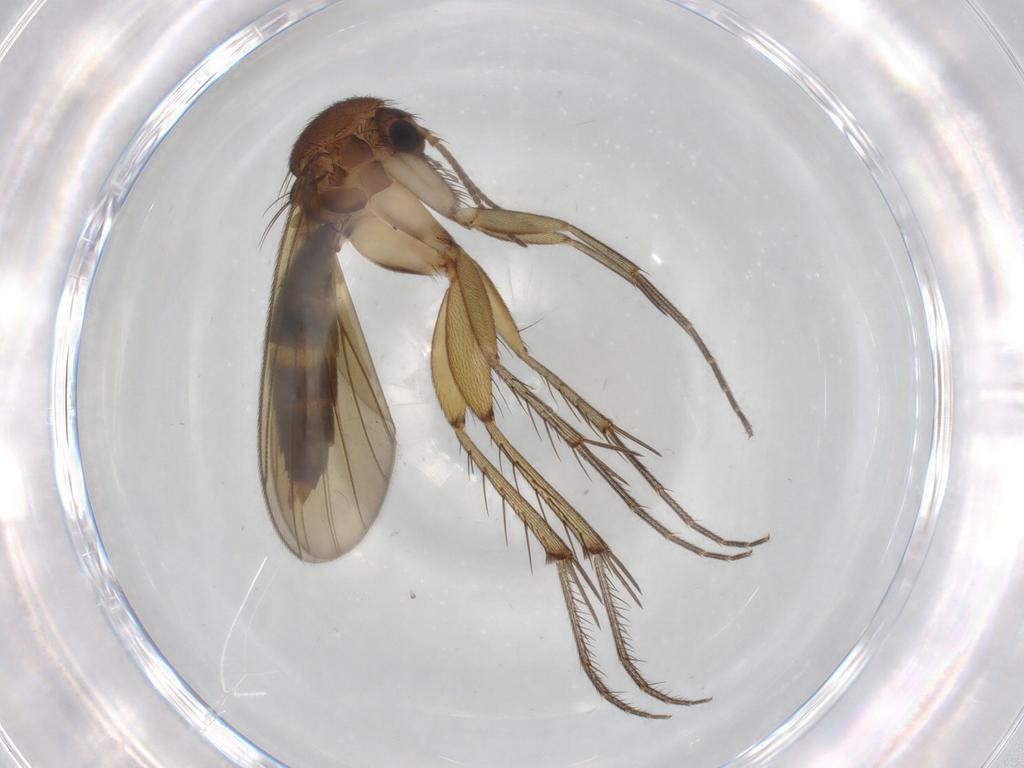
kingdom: Animalia
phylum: Arthropoda
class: Insecta
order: Diptera
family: Mycetophilidae
